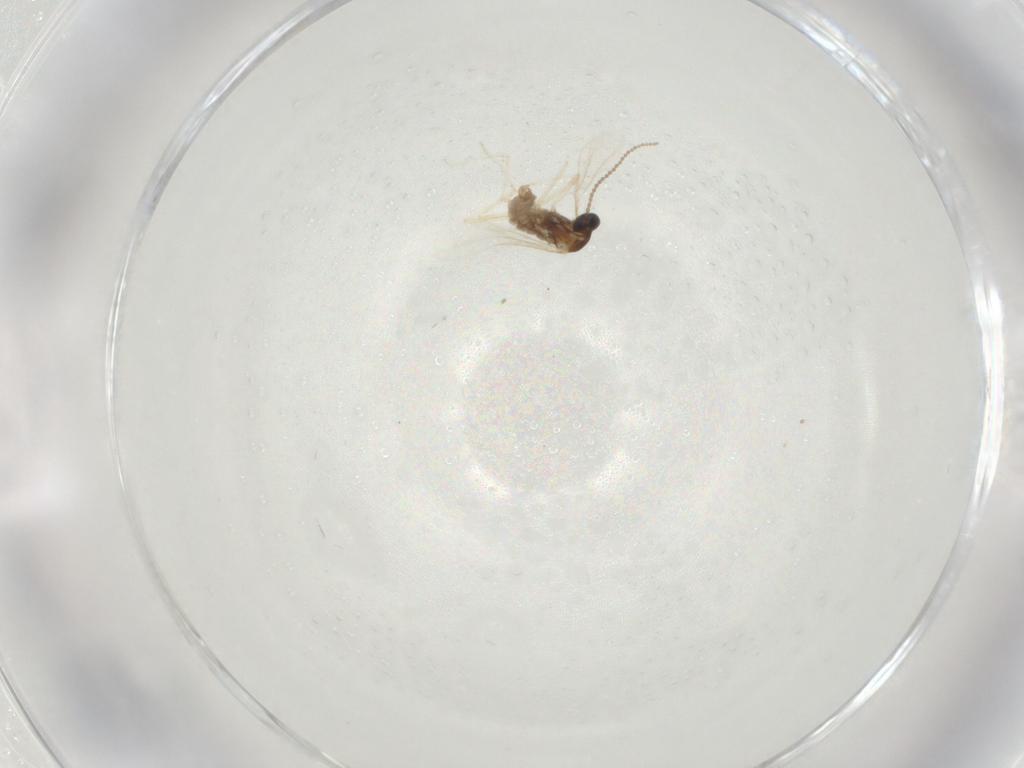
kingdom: Animalia
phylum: Arthropoda
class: Insecta
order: Diptera
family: Cecidomyiidae
